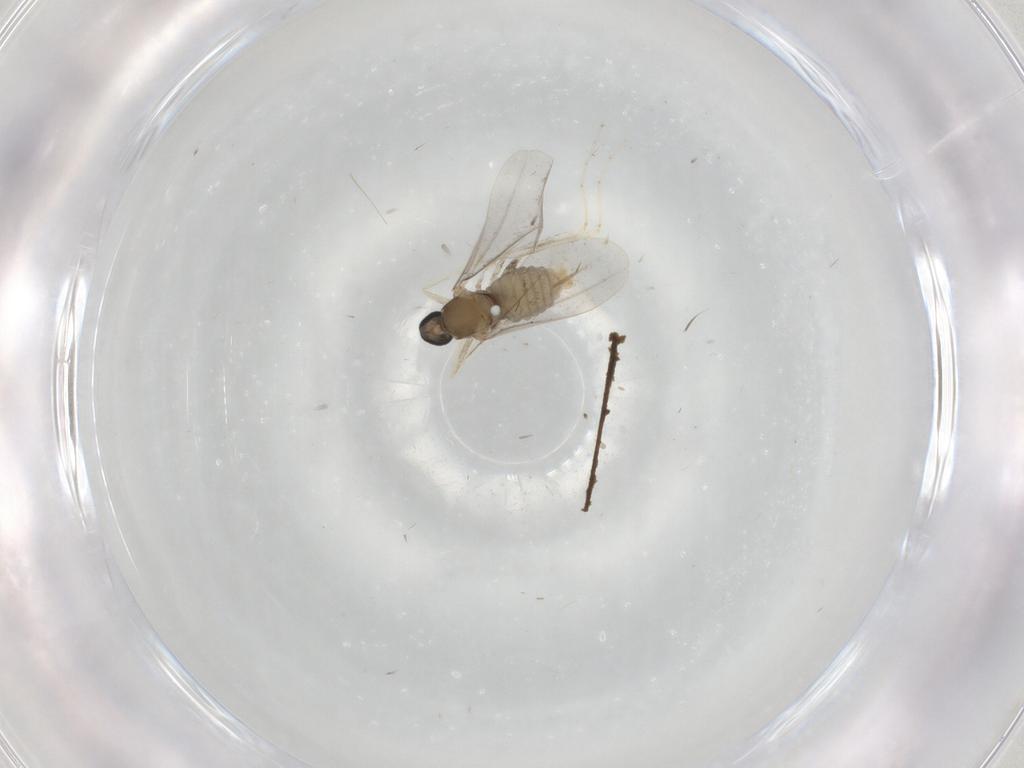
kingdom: Animalia
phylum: Arthropoda
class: Insecta
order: Diptera
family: Cecidomyiidae
